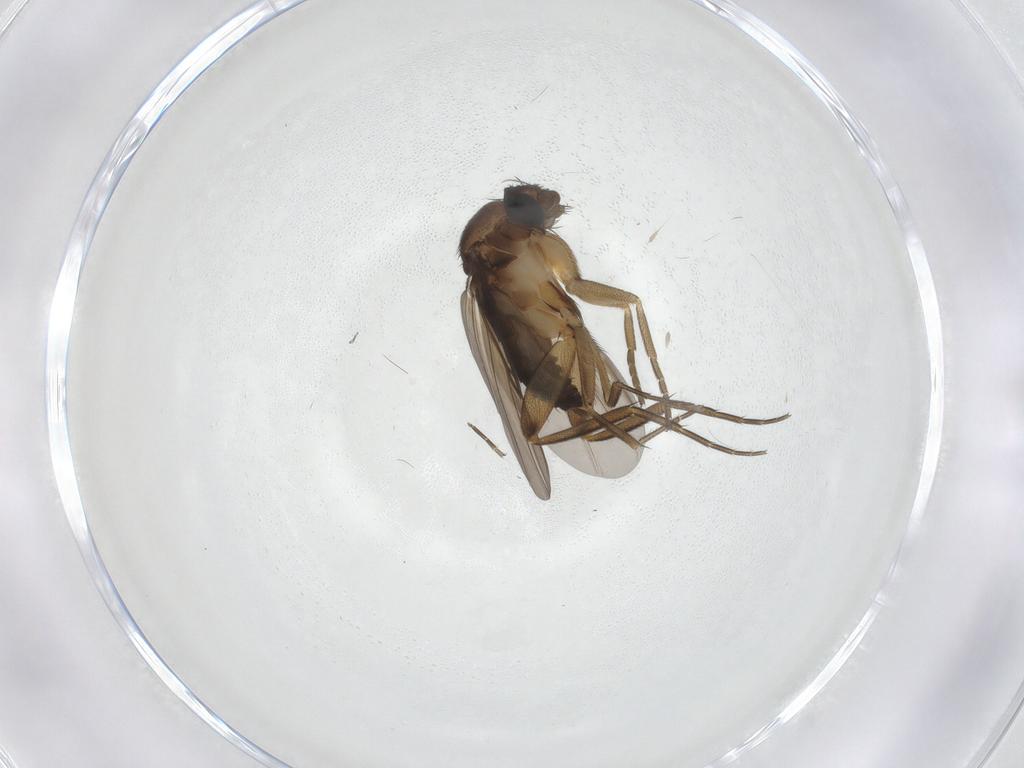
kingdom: Animalia
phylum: Arthropoda
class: Insecta
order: Diptera
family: Phoridae
